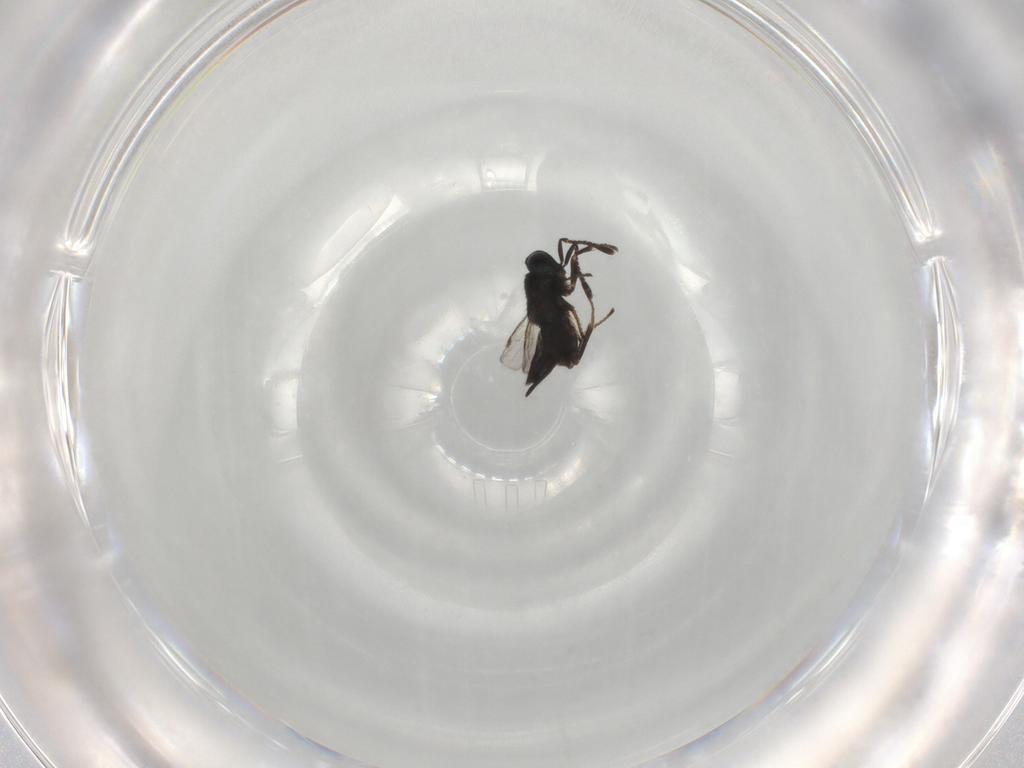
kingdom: Animalia
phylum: Arthropoda
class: Insecta
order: Hymenoptera
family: Encyrtidae
